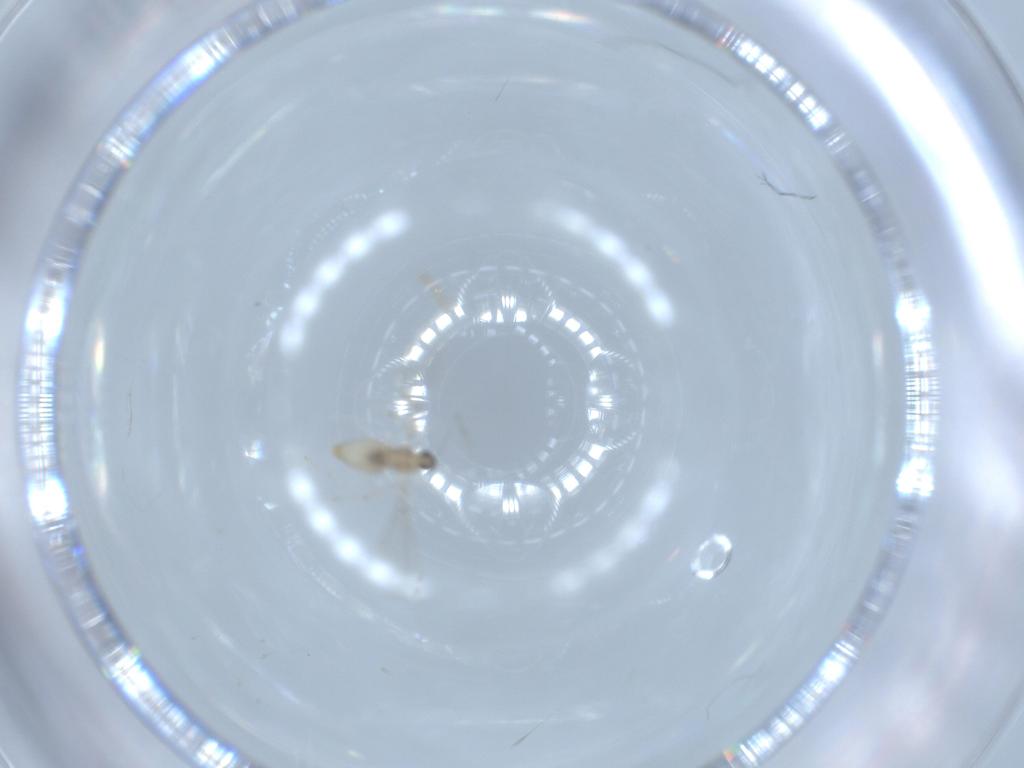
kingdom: Animalia
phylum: Arthropoda
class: Insecta
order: Diptera
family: Cecidomyiidae
